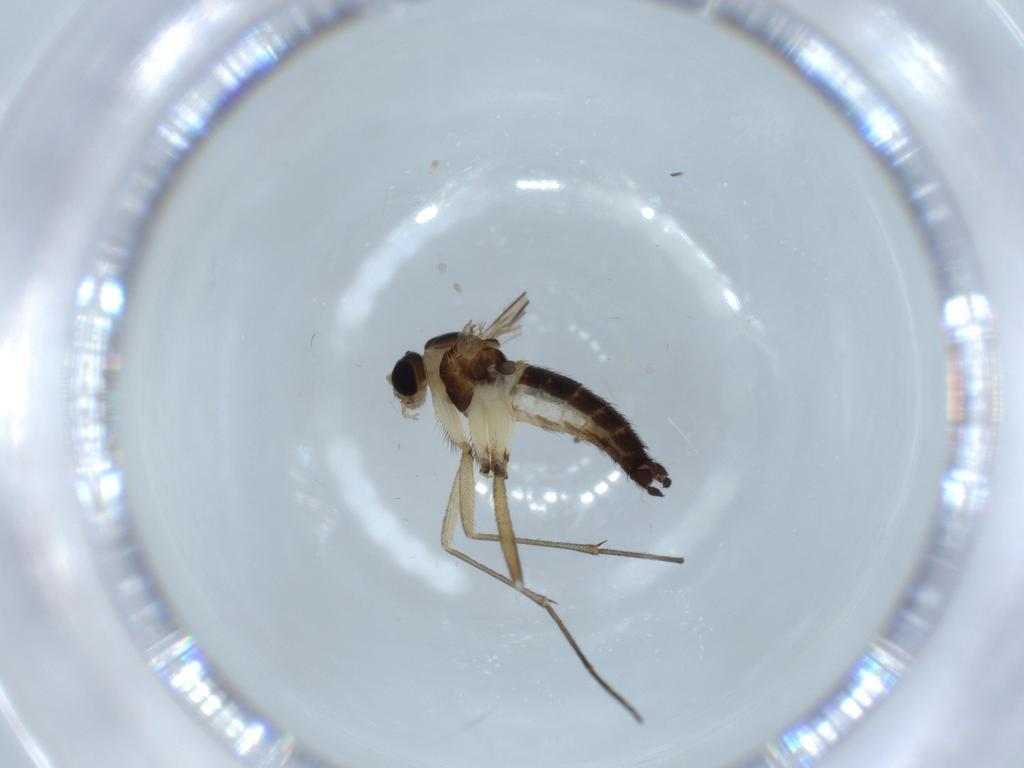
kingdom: Animalia
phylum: Arthropoda
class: Insecta
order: Diptera
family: Sciaridae
